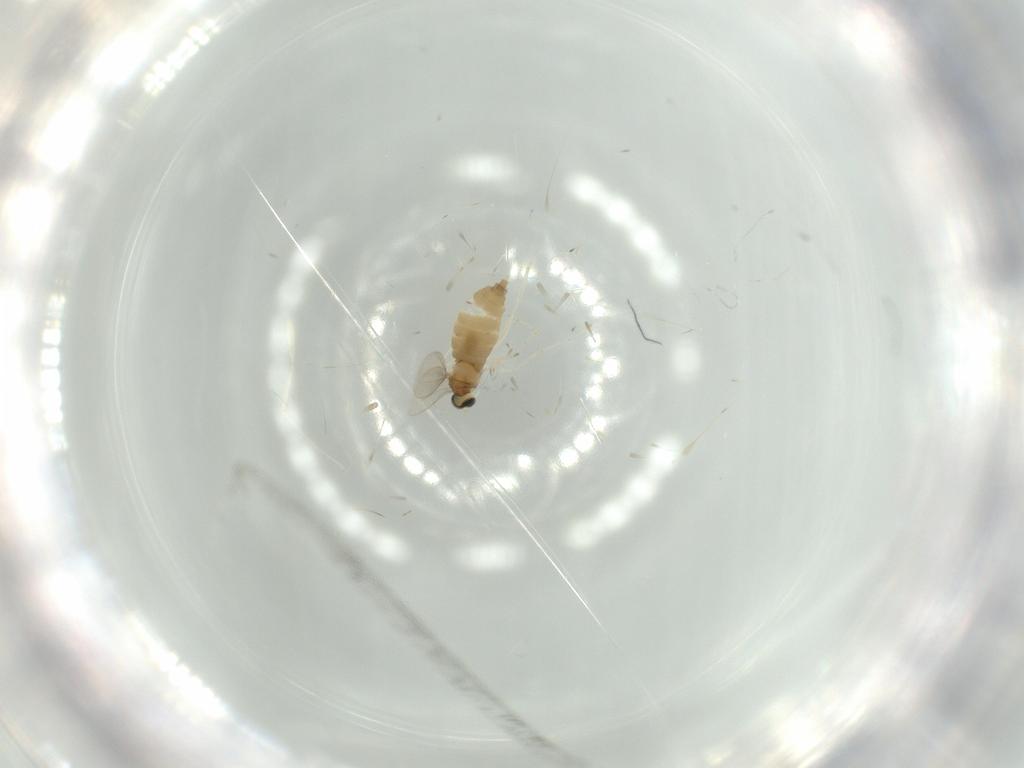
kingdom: Animalia
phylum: Arthropoda
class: Insecta
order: Diptera
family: Cecidomyiidae
